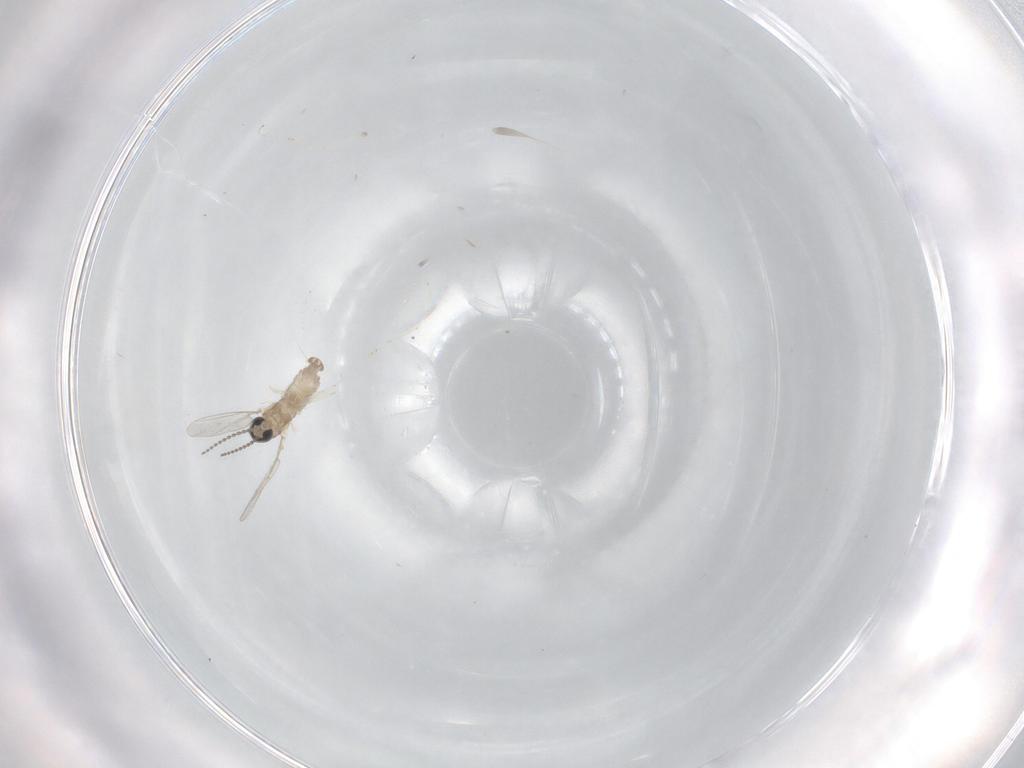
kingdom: Animalia
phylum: Arthropoda
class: Insecta
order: Diptera
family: Cecidomyiidae
